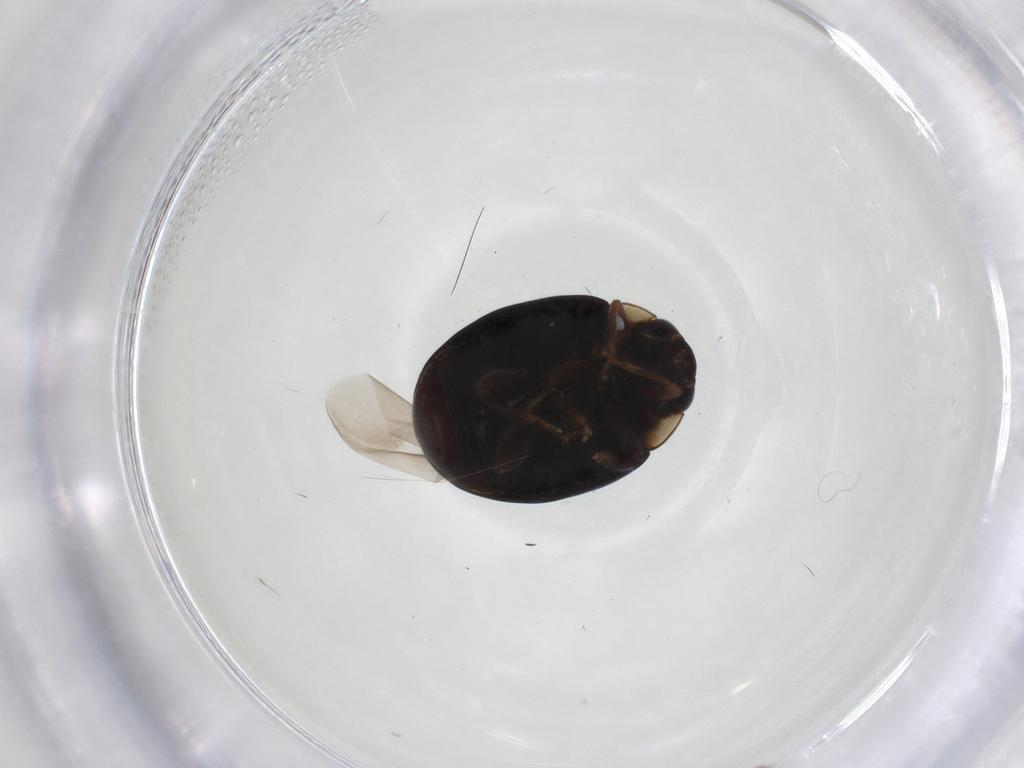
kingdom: Animalia
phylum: Arthropoda
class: Insecta
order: Coleoptera
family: Coccinellidae
